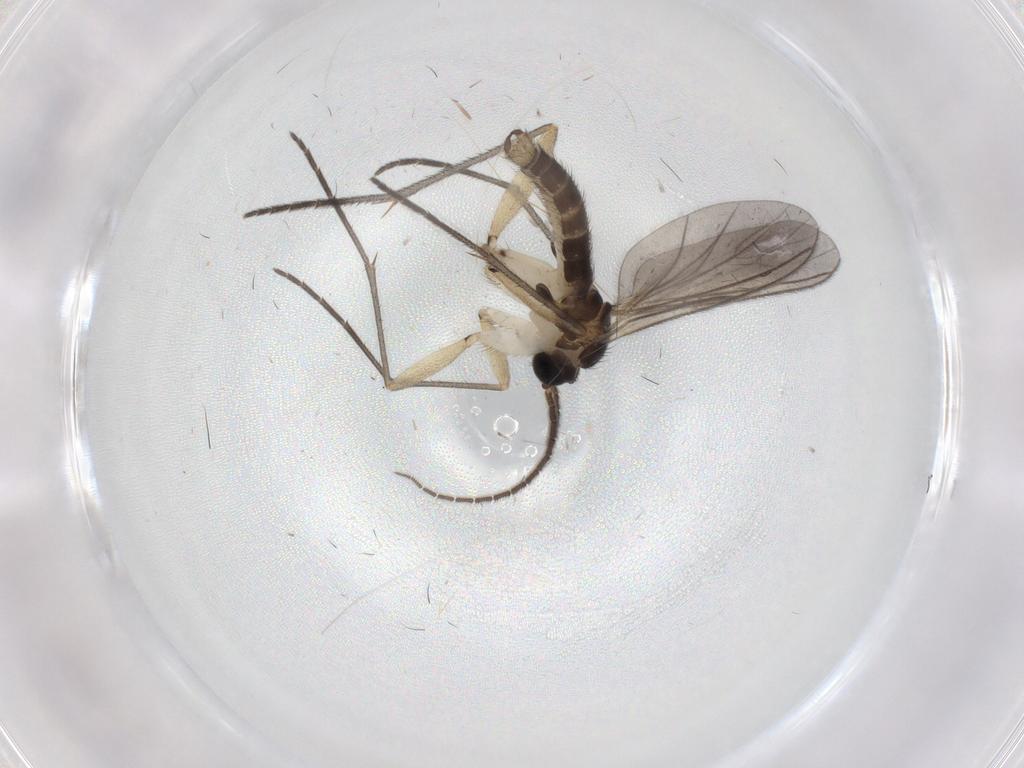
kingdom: Animalia
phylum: Arthropoda
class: Insecta
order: Diptera
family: Sciaridae
